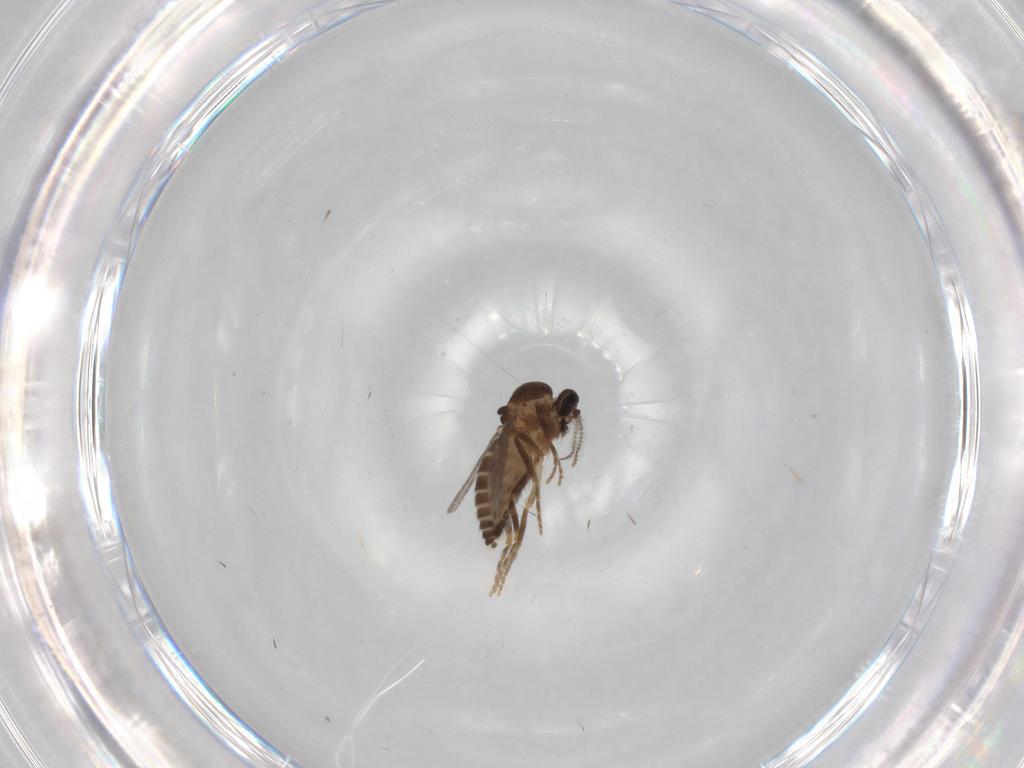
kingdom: Animalia
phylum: Arthropoda
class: Insecta
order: Diptera
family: Ceratopogonidae
